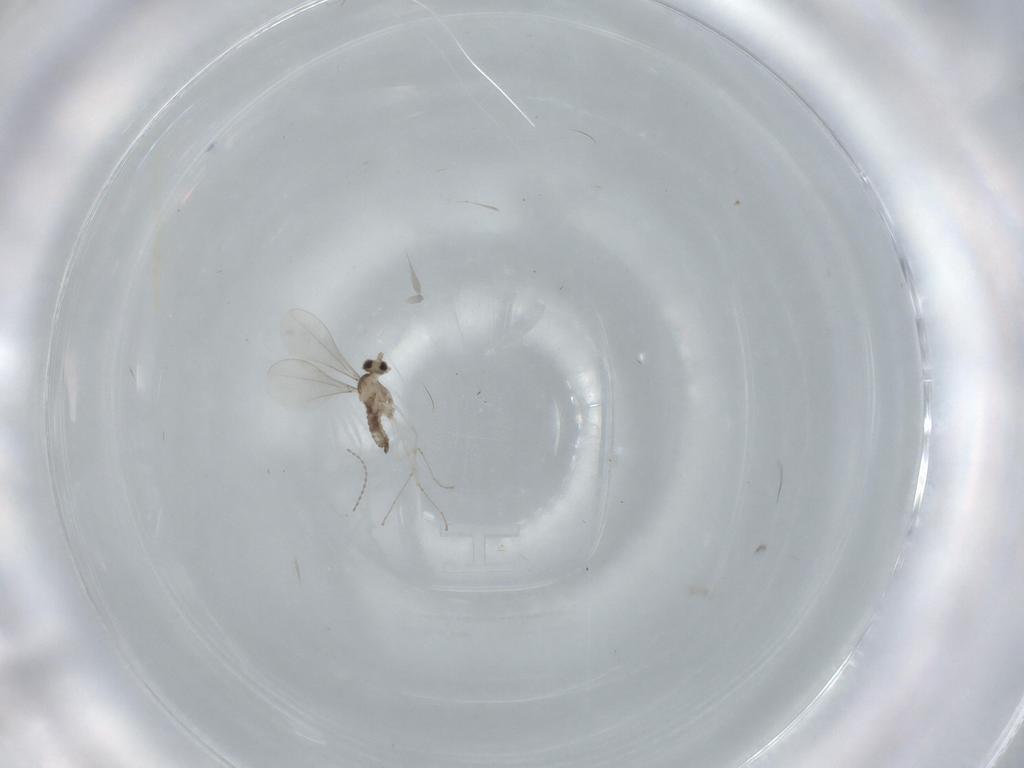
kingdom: Animalia
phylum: Arthropoda
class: Insecta
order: Diptera
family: Cecidomyiidae
